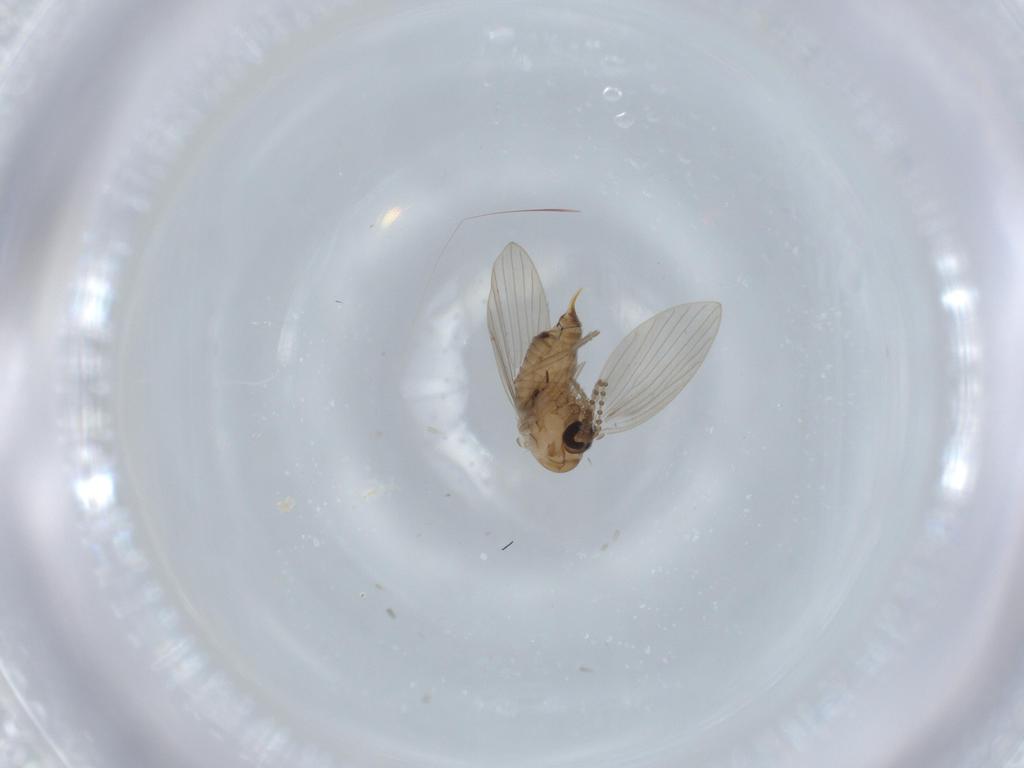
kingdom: Animalia
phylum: Arthropoda
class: Insecta
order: Diptera
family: Psychodidae
